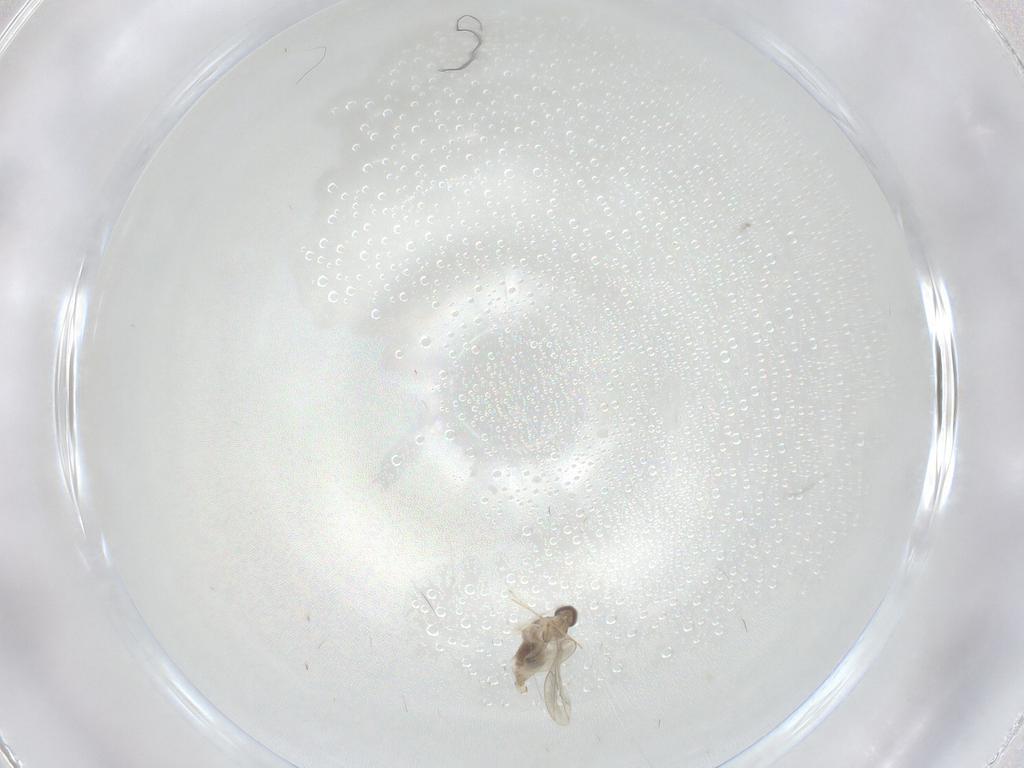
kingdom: Animalia
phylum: Arthropoda
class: Insecta
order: Diptera
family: Cecidomyiidae
